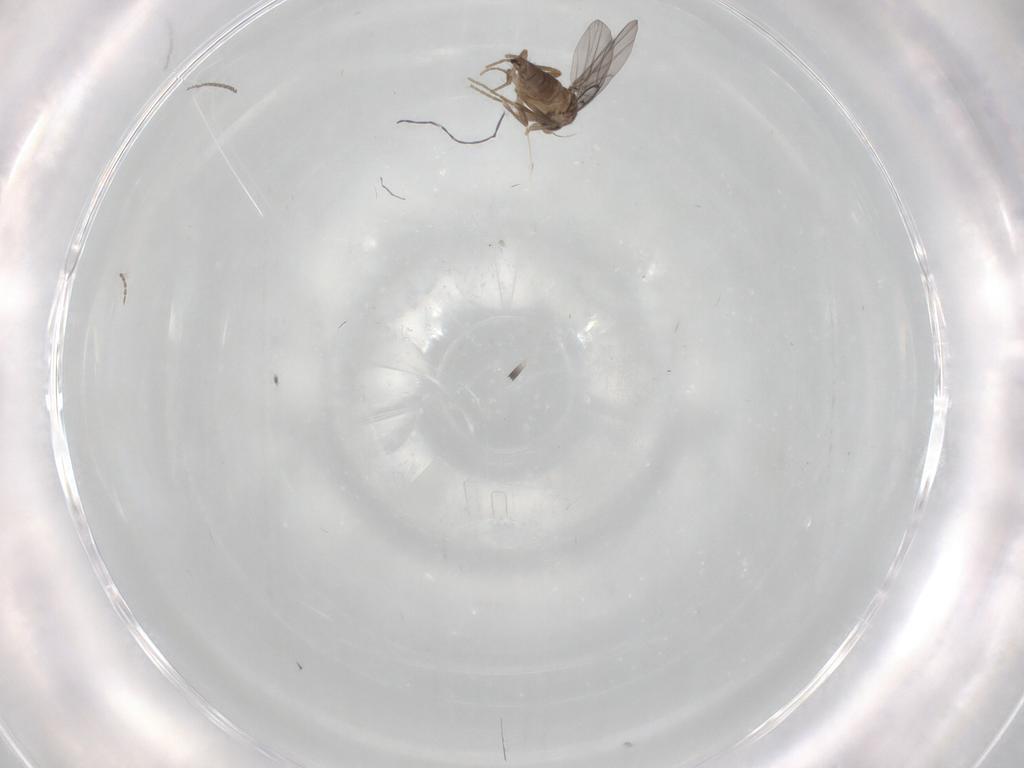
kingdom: Animalia
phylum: Arthropoda
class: Insecta
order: Diptera
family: Cecidomyiidae
